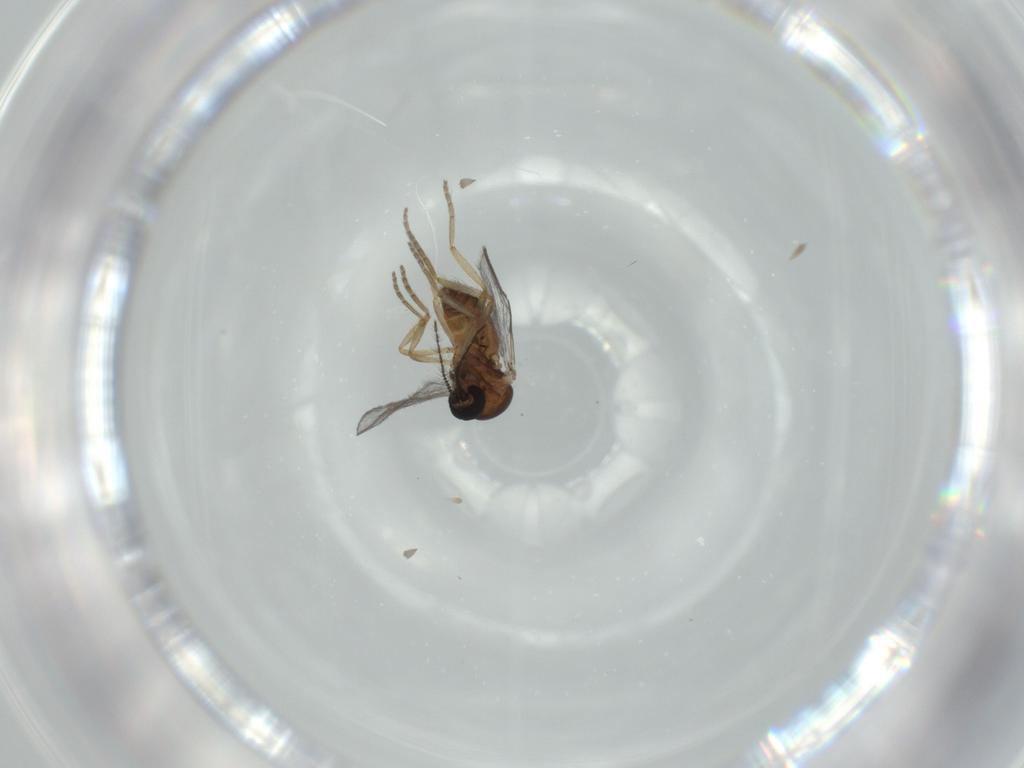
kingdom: Animalia
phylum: Arthropoda
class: Insecta
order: Diptera
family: Ceratopogonidae
